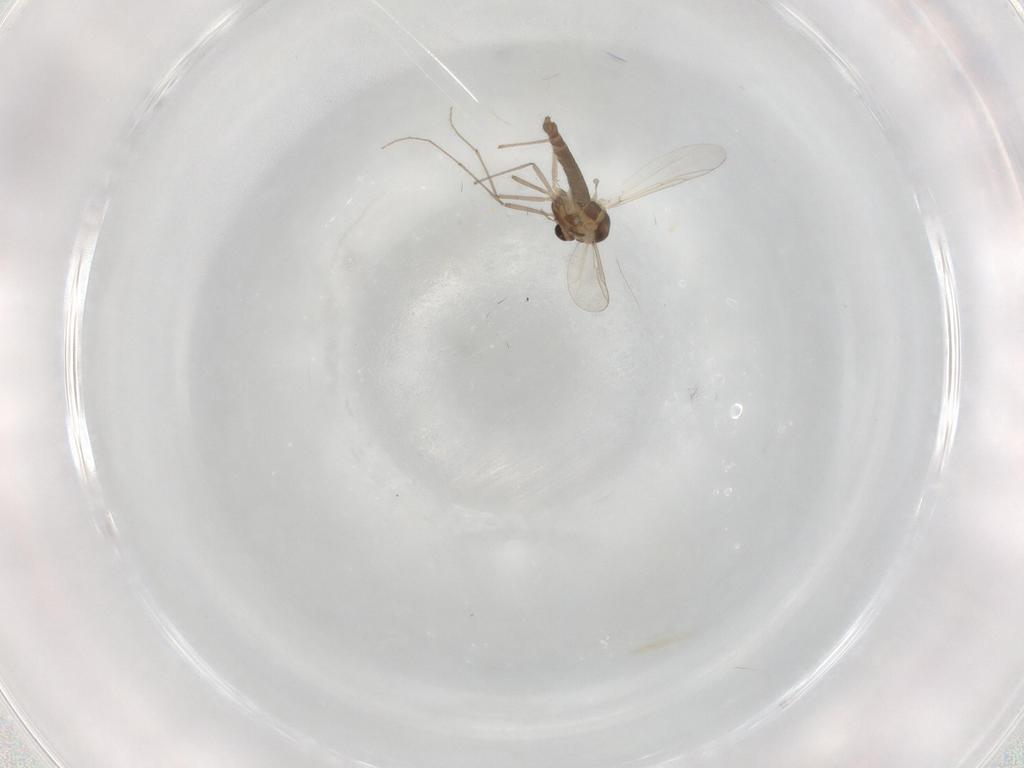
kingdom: Animalia
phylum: Arthropoda
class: Insecta
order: Diptera
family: Chironomidae
